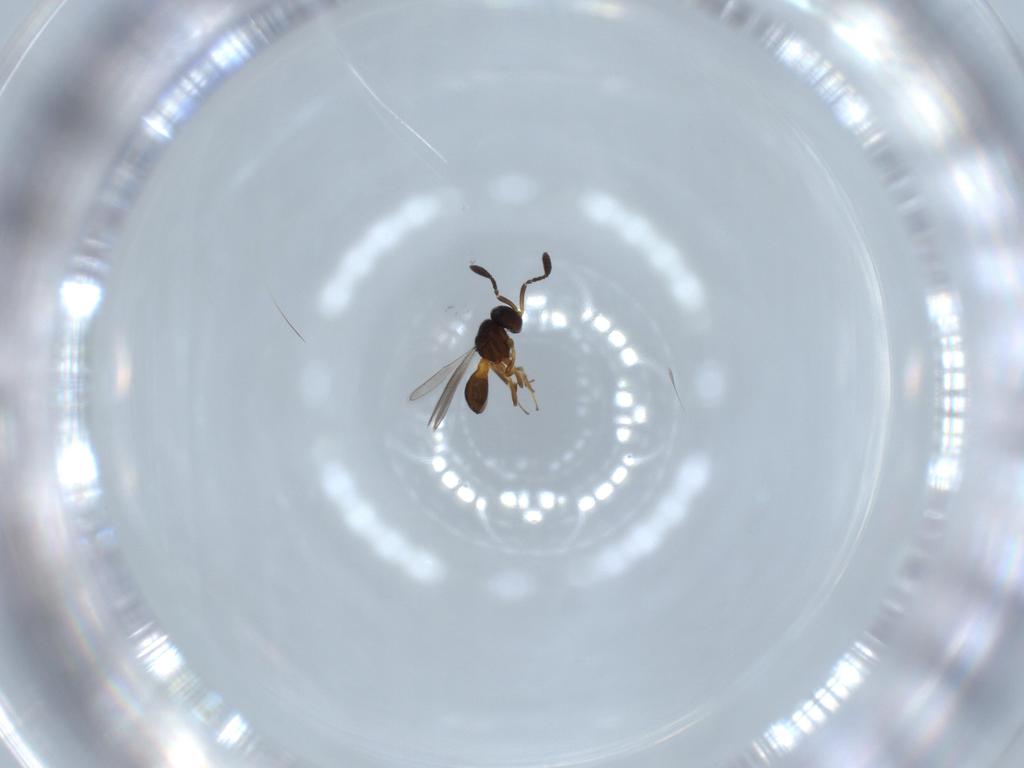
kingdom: Animalia
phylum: Arthropoda
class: Insecta
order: Hymenoptera
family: Scelionidae
